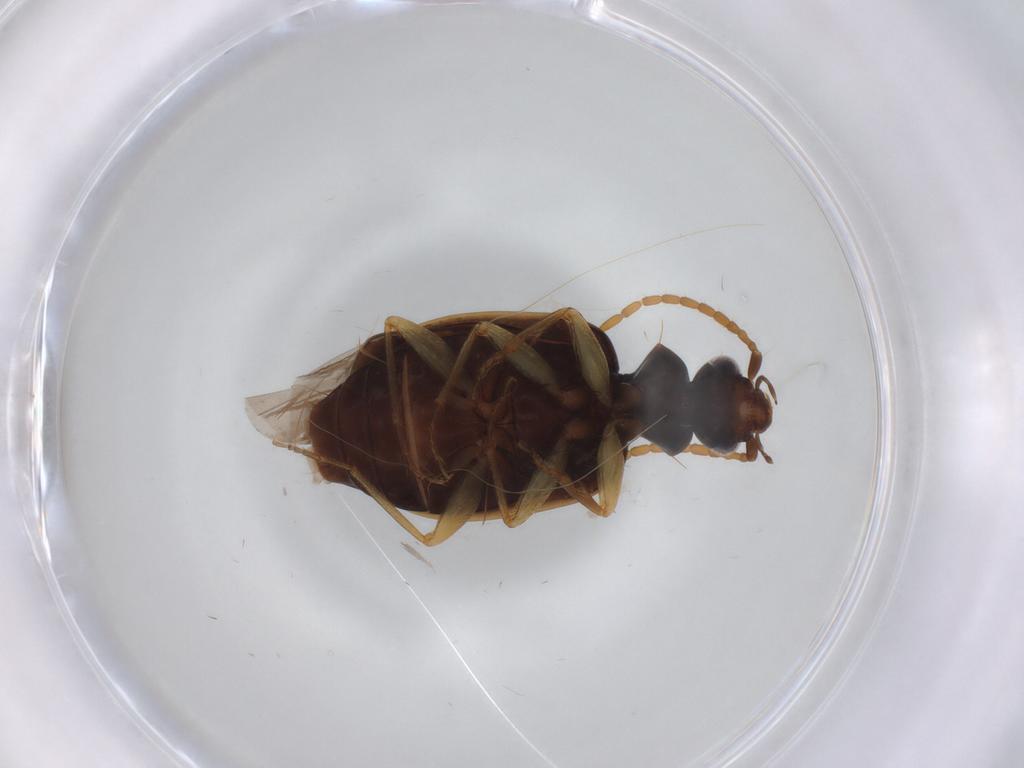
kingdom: Animalia
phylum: Arthropoda
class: Insecta
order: Coleoptera
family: Carabidae
